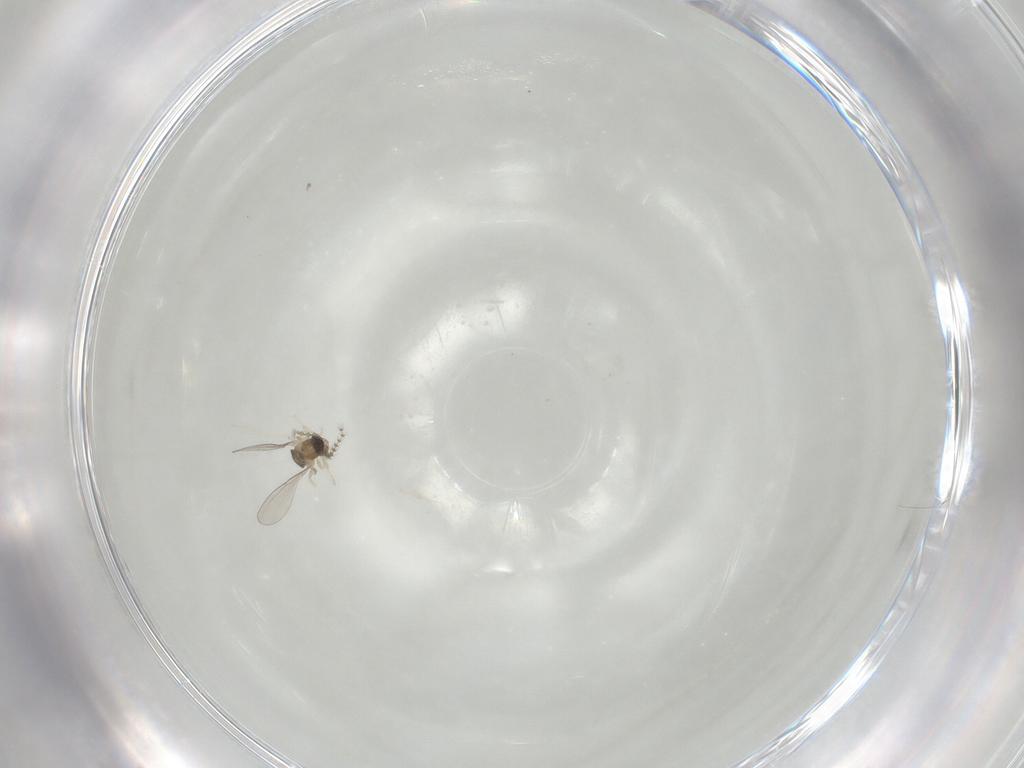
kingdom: Animalia
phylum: Arthropoda
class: Insecta
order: Diptera
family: Cecidomyiidae
